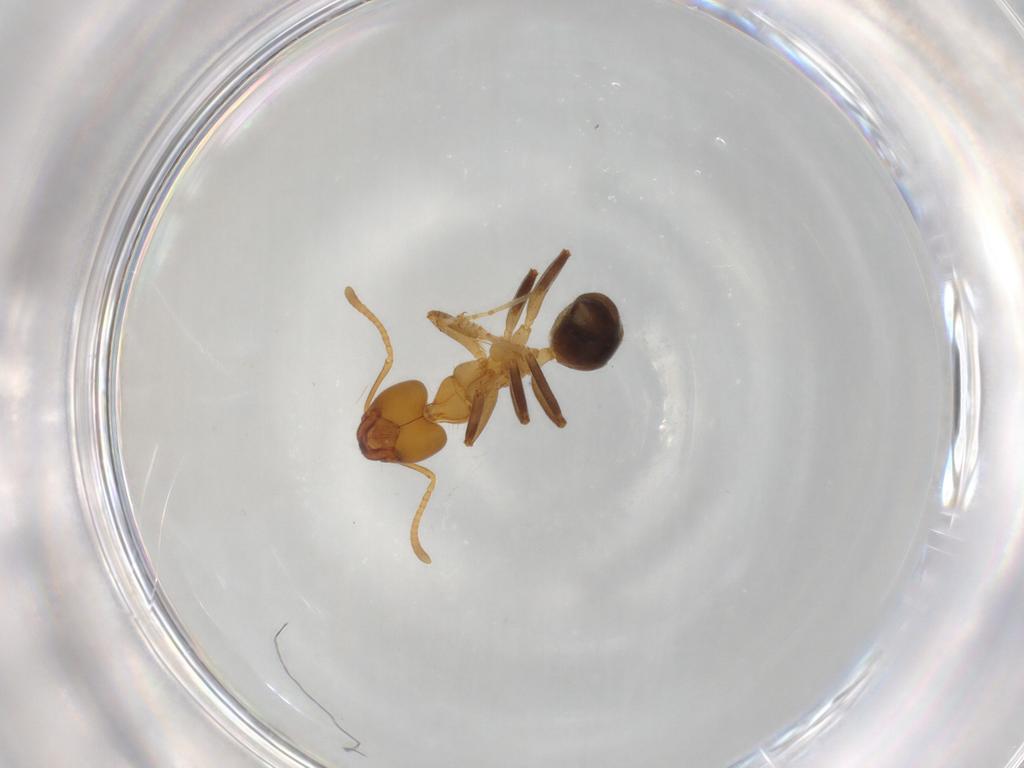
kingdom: Animalia
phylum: Arthropoda
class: Insecta
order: Hymenoptera
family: Formicidae
